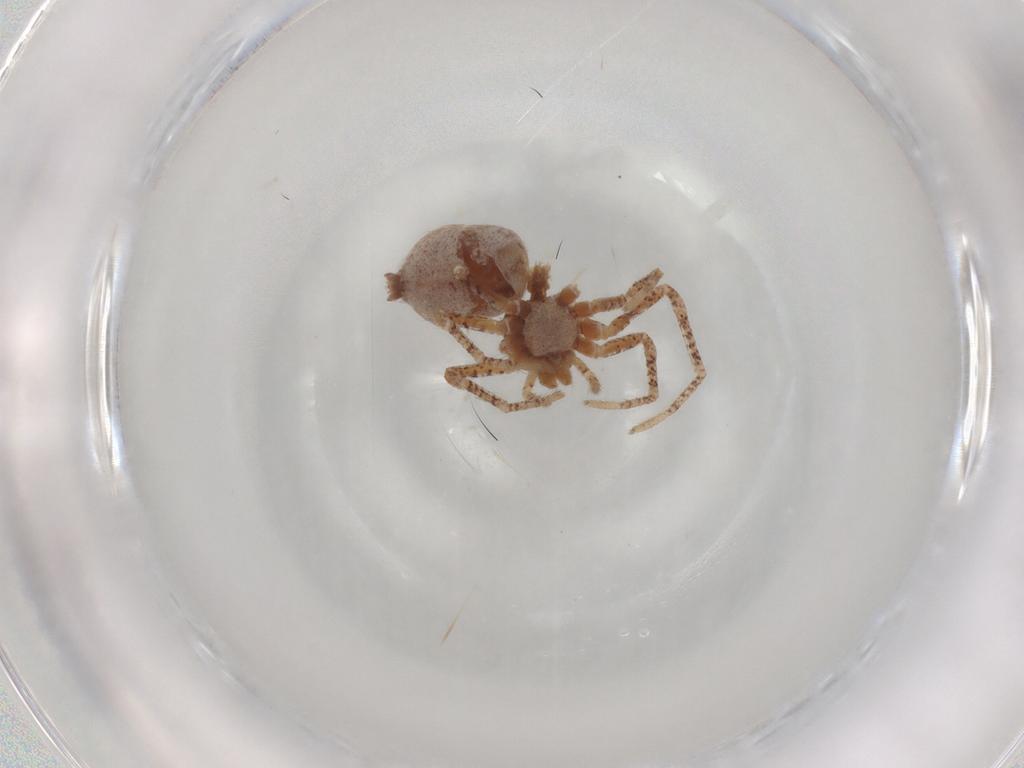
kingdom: Animalia
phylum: Arthropoda
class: Arachnida
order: Araneae
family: Philodromidae
